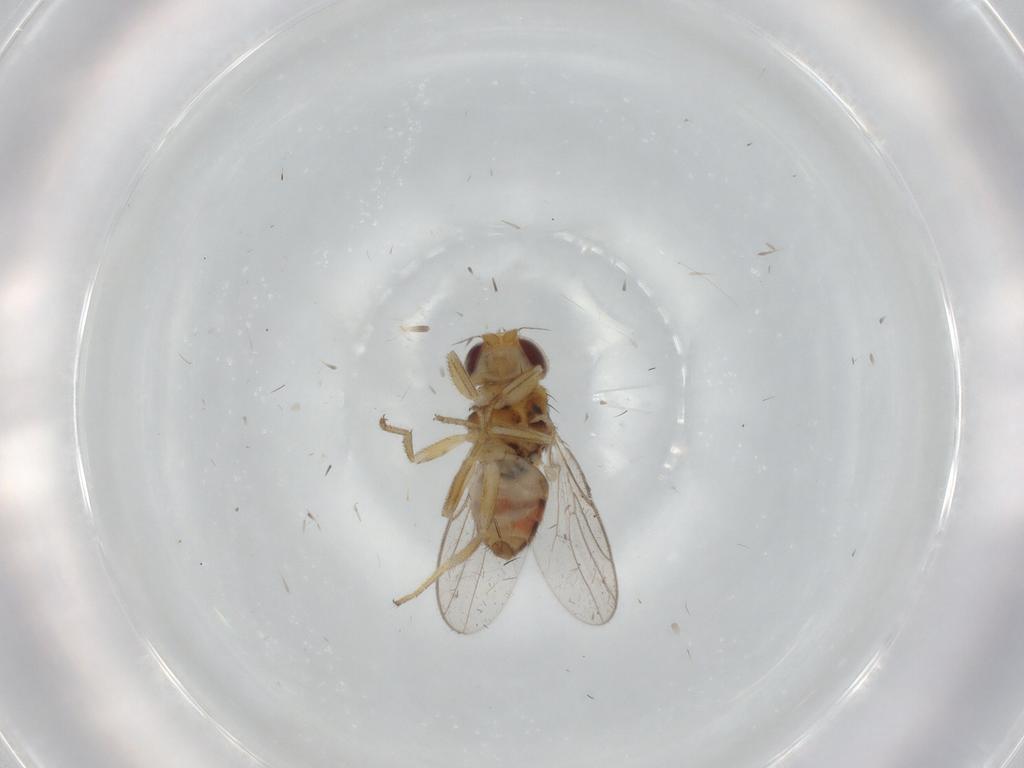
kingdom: Animalia
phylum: Arthropoda
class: Insecta
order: Diptera
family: Chloropidae
